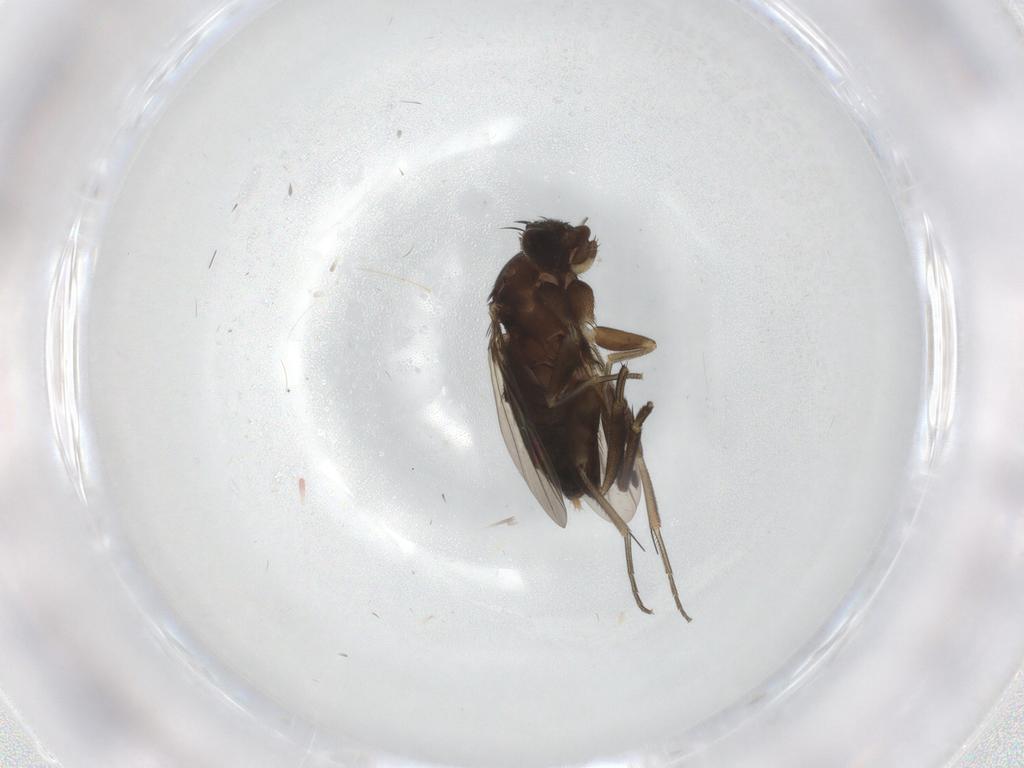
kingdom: Animalia
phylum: Arthropoda
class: Insecta
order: Diptera
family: Phoridae
